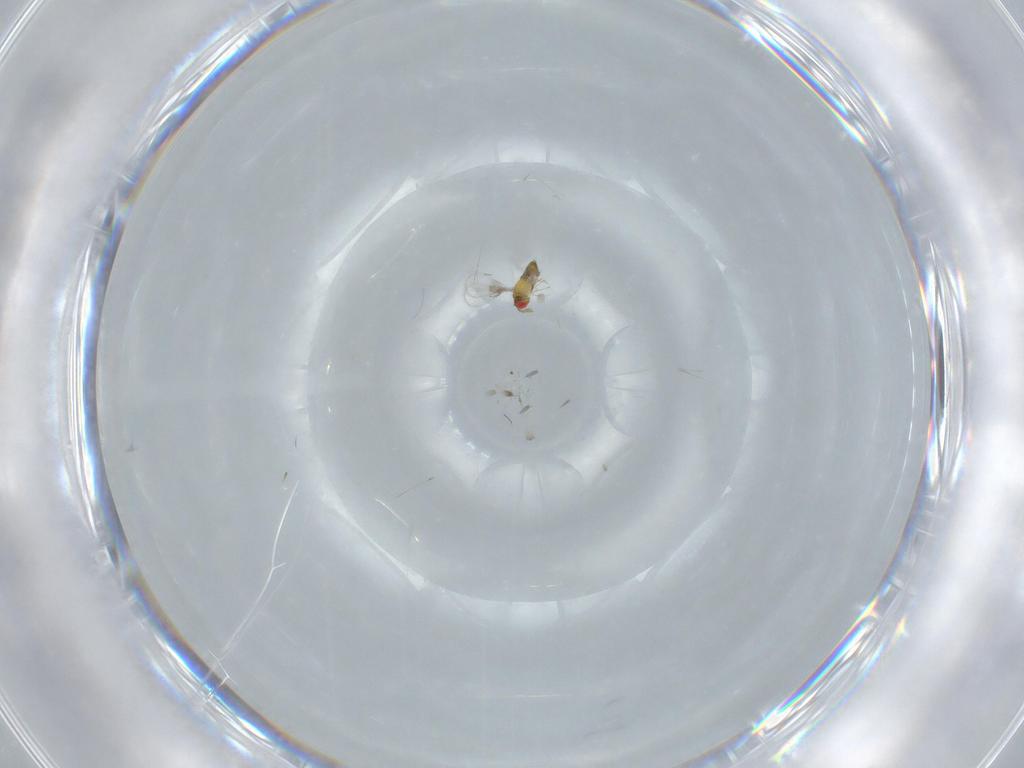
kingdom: Animalia
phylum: Arthropoda
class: Insecta
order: Hymenoptera
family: Trichogrammatidae
